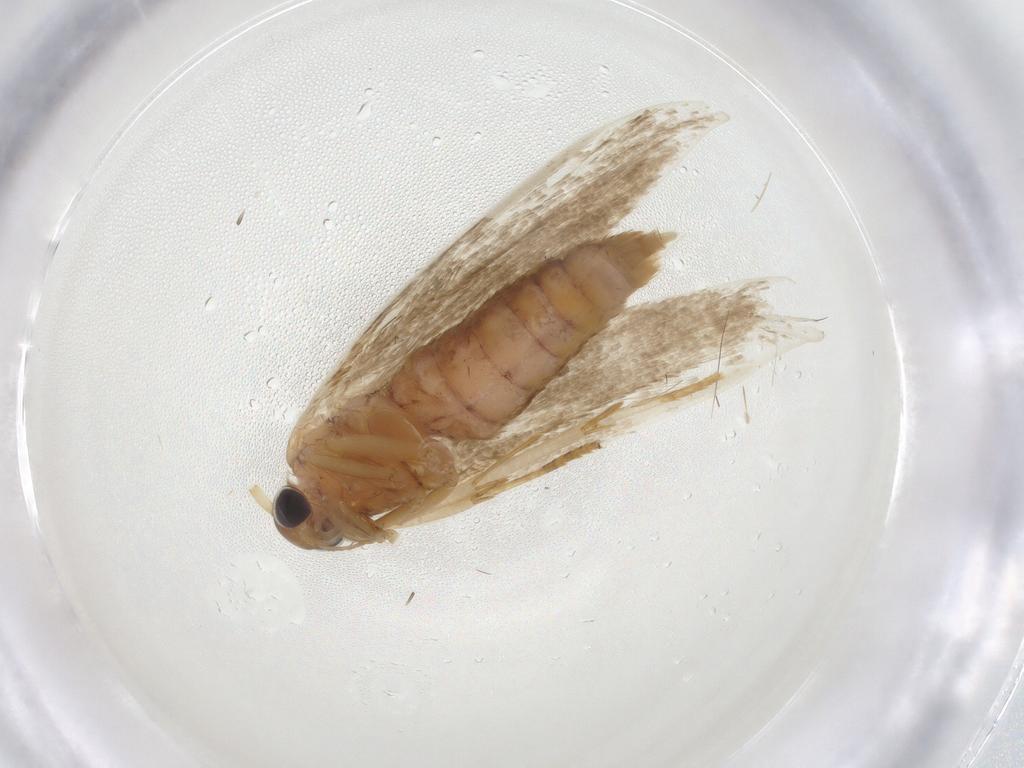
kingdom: Animalia
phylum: Arthropoda
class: Insecta
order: Lepidoptera
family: Blastobasidae
